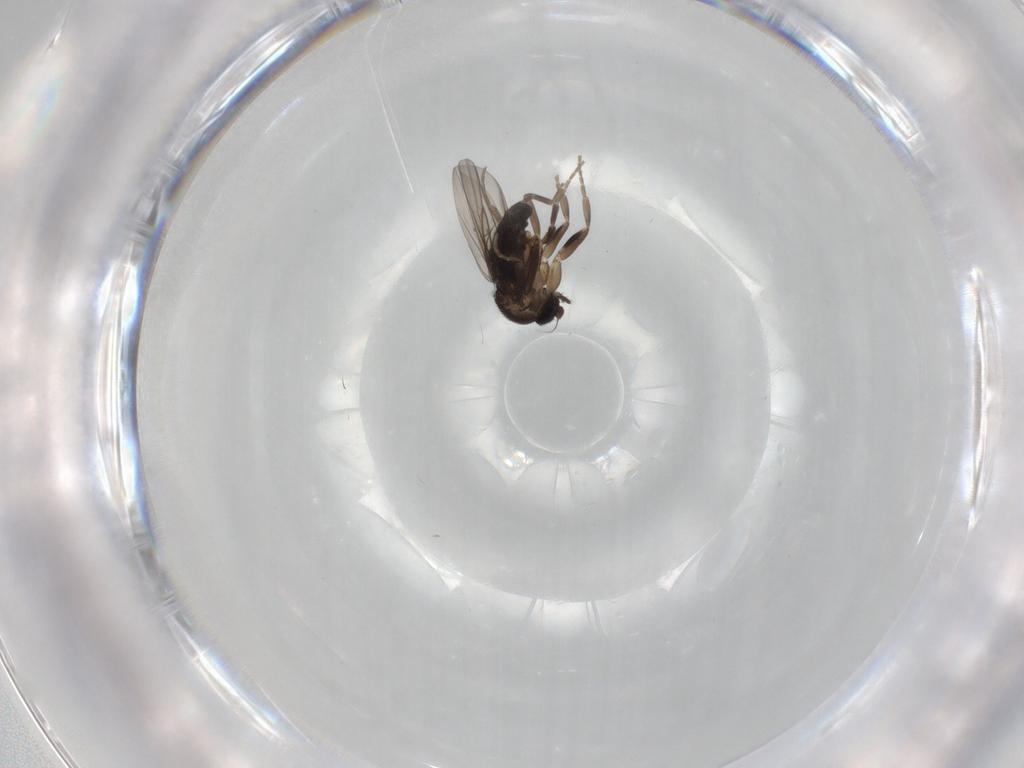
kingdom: Animalia
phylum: Arthropoda
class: Insecta
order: Diptera
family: Phoridae
